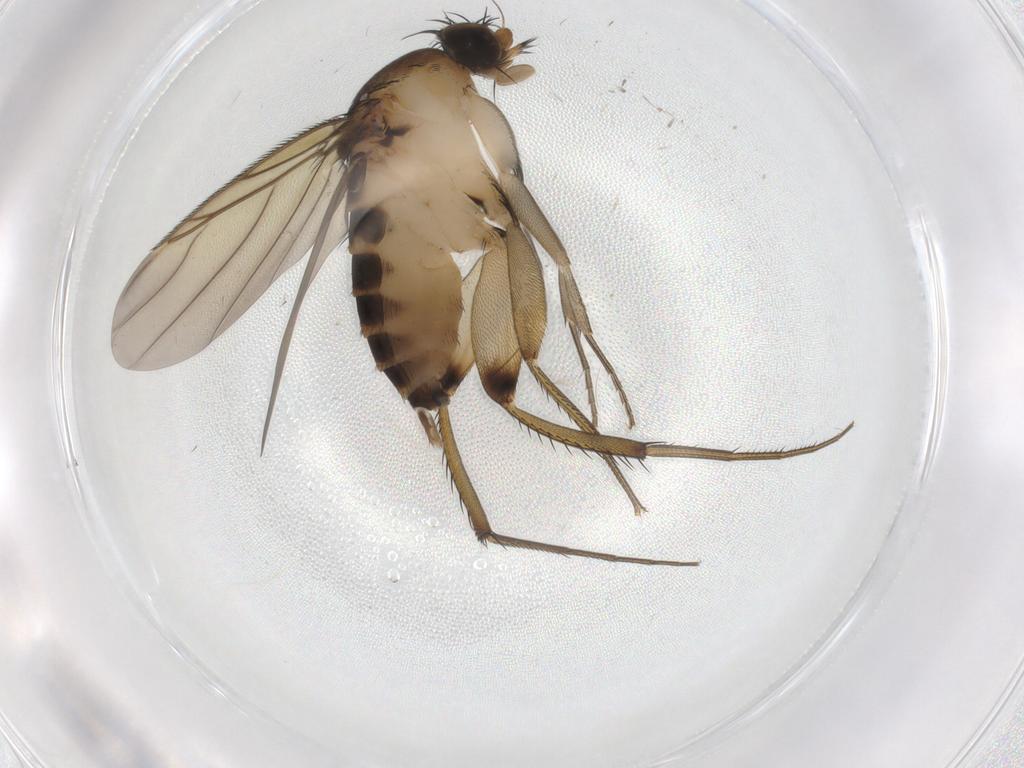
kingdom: Animalia
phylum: Arthropoda
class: Insecta
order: Diptera
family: Phoridae
